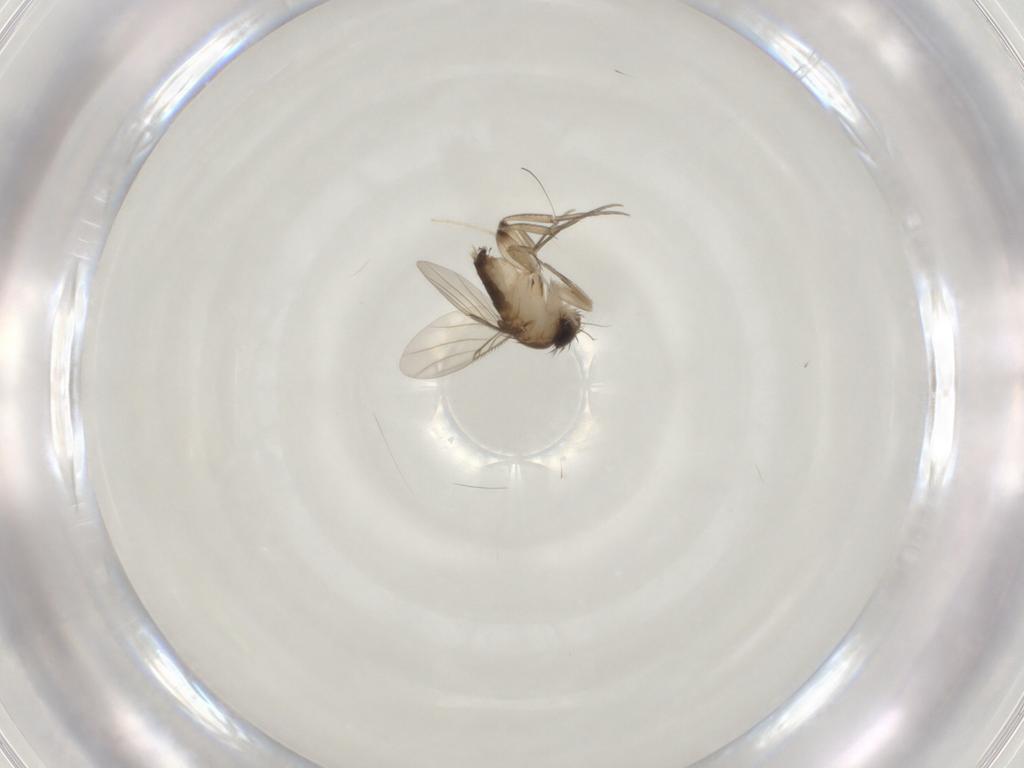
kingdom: Animalia
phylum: Arthropoda
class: Insecta
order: Diptera
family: Phoridae
